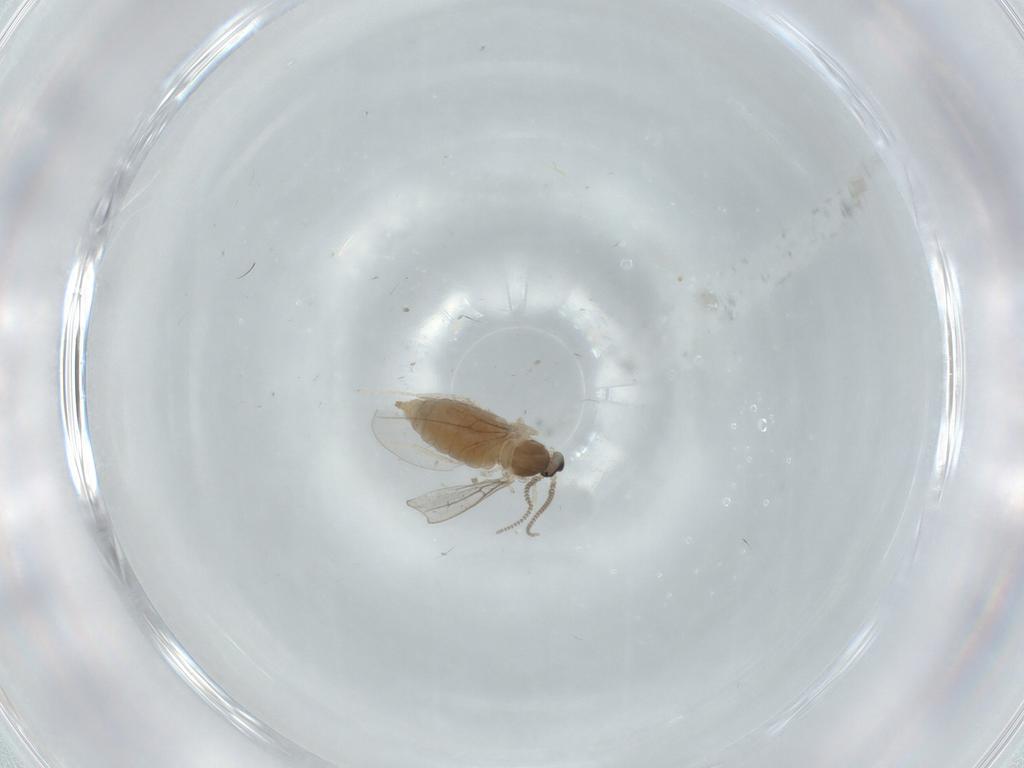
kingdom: Animalia
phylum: Arthropoda
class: Insecta
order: Diptera
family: Cecidomyiidae
